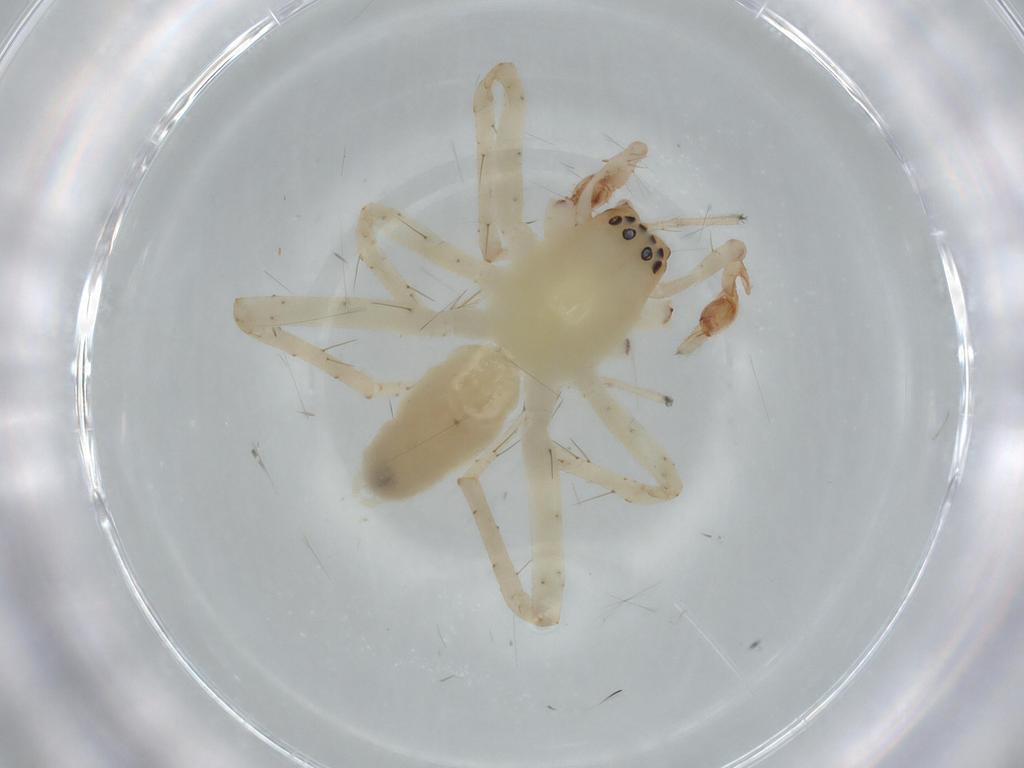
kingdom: Animalia
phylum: Arthropoda
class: Arachnida
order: Araneae
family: Anyphaenidae
